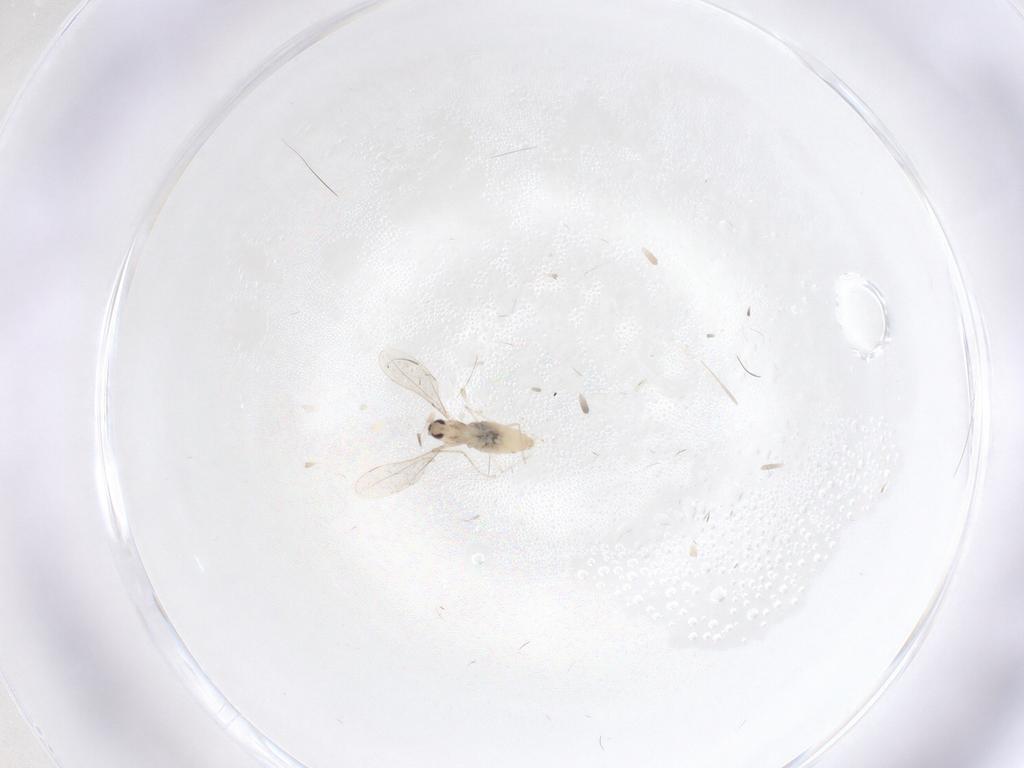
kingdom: Animalia
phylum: Arthropoda
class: Insecta
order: Diptera
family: Cecidomyiidae
